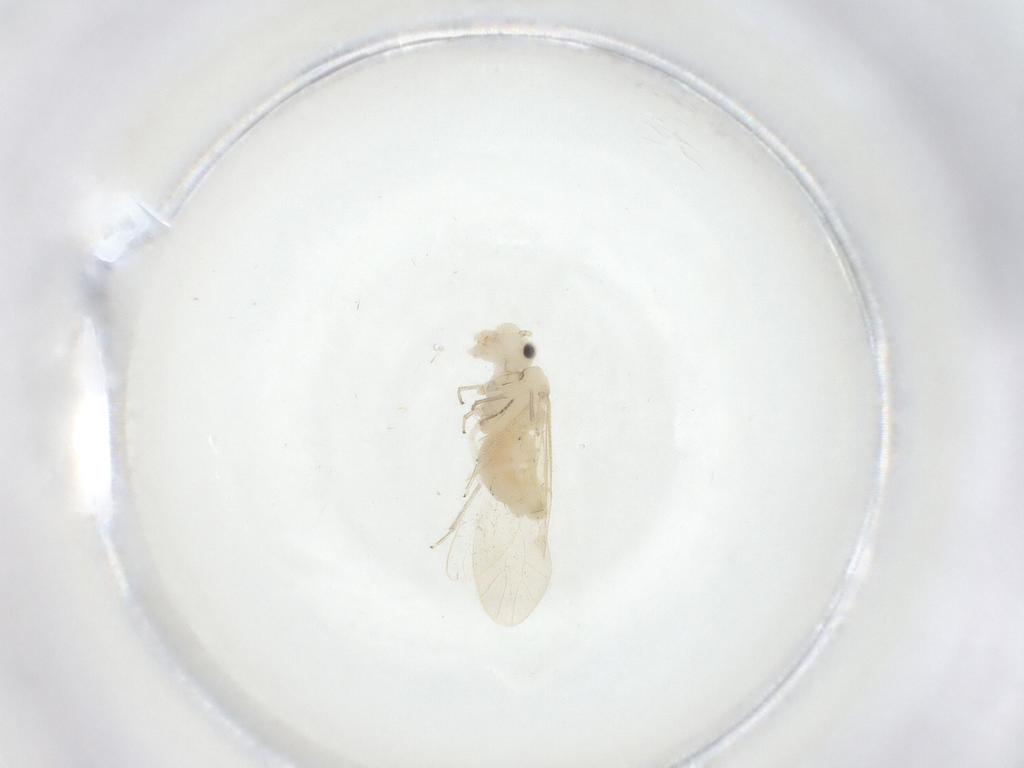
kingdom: Animalia
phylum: Arthropoda
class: Insecta
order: Psocodea
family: Caeciliusidae
